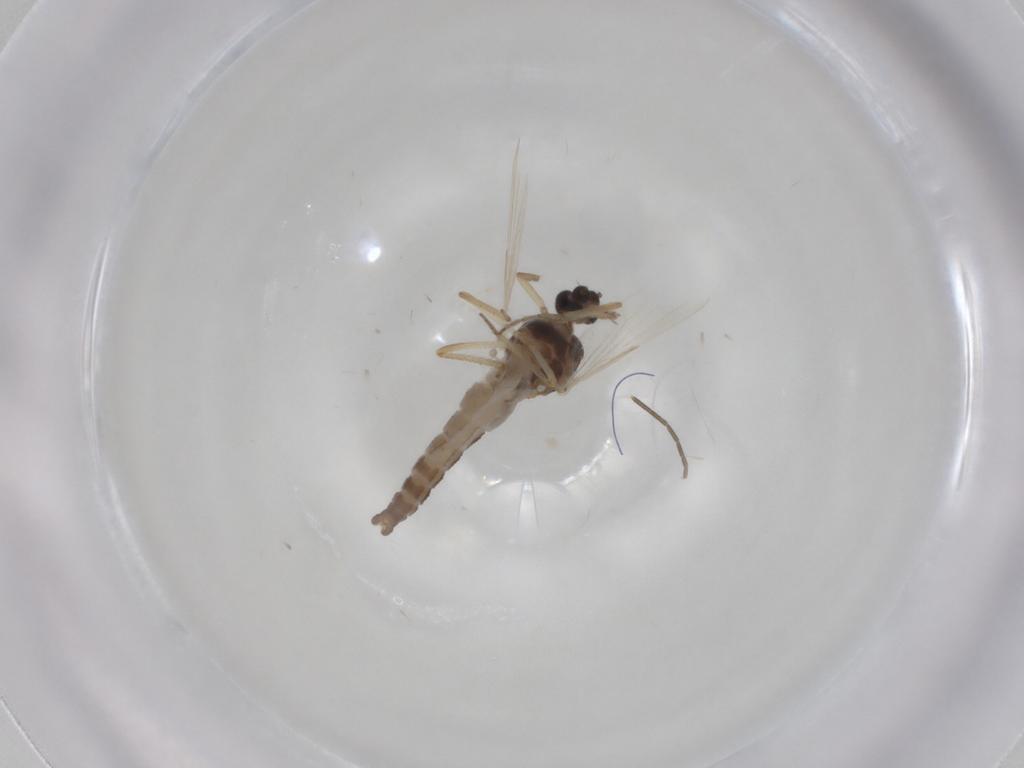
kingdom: Animalia
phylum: Arthropoda
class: Insecta
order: Diptera
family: Ceratopogonidae
